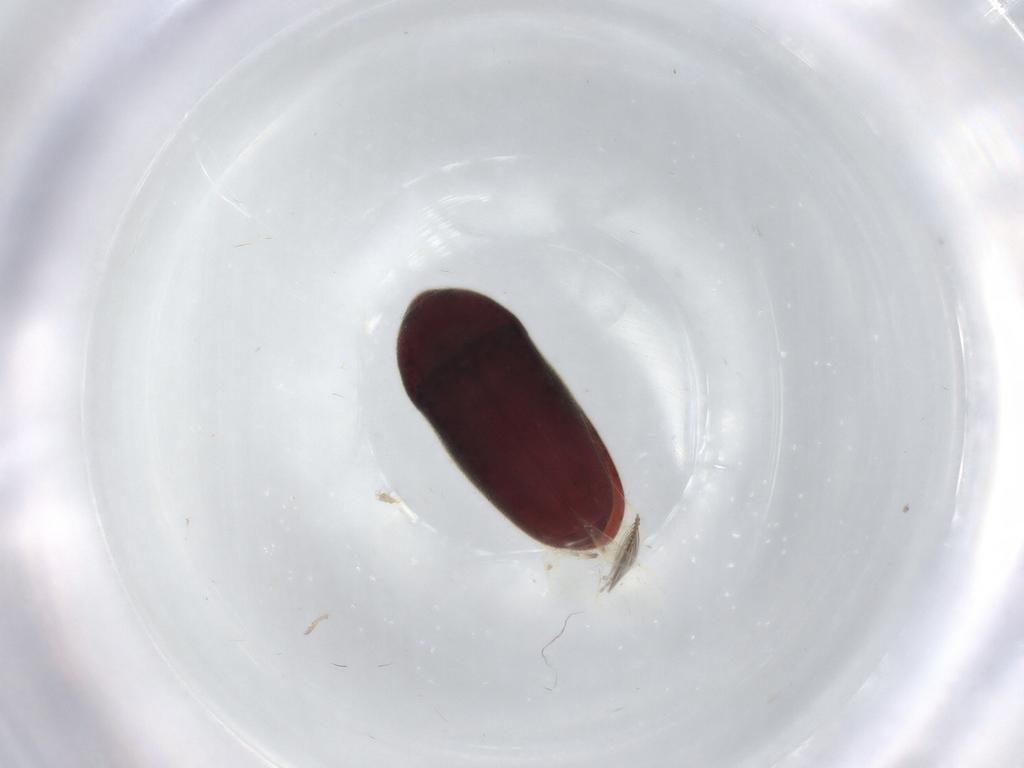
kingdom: Animalia
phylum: Arthropoda
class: Insecta
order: Coleoptera
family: Throscidae
